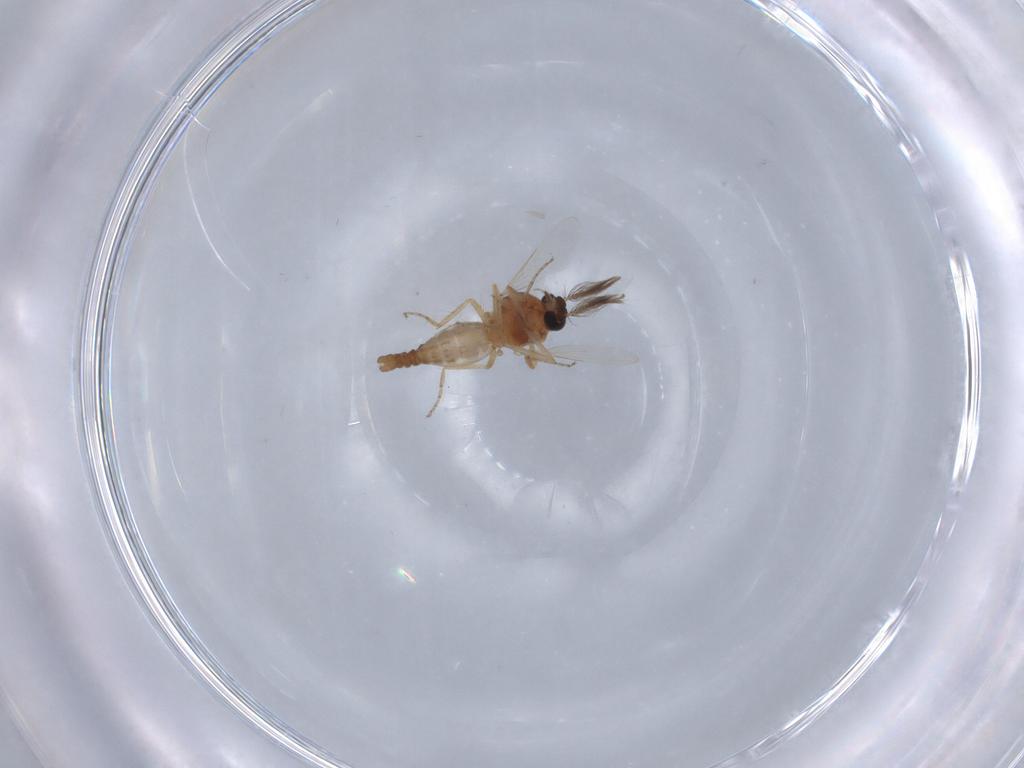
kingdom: Animalia
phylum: Arthropoda
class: Insecta
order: Diptera
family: Ceratopogonidae
